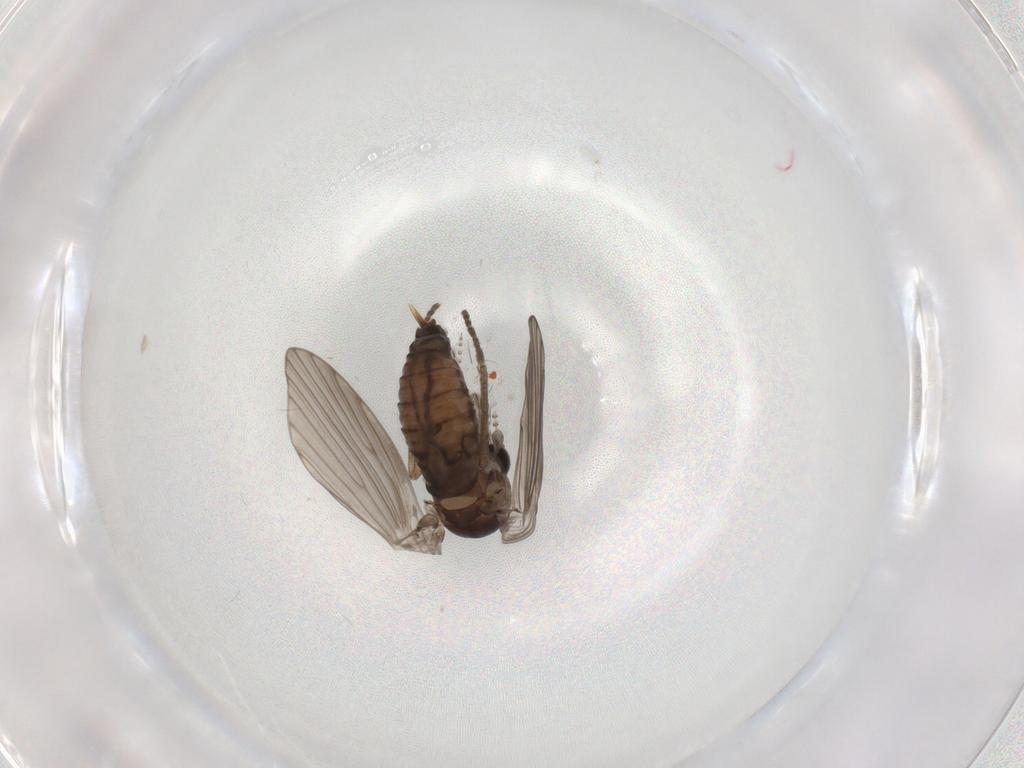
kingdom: Animalia
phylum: Arthropoda
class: Insecta
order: Diptera
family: Psychodidae
